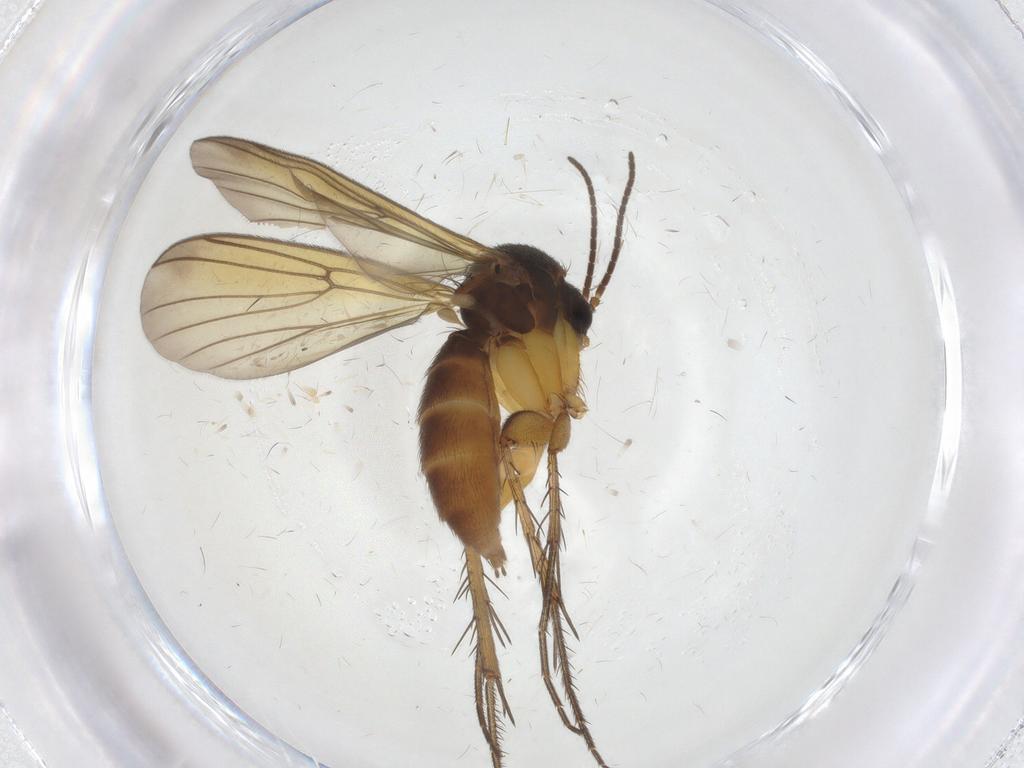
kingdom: Animalia
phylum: Arthropoda
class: Insecta
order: Diptera
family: Mycetophilidae
